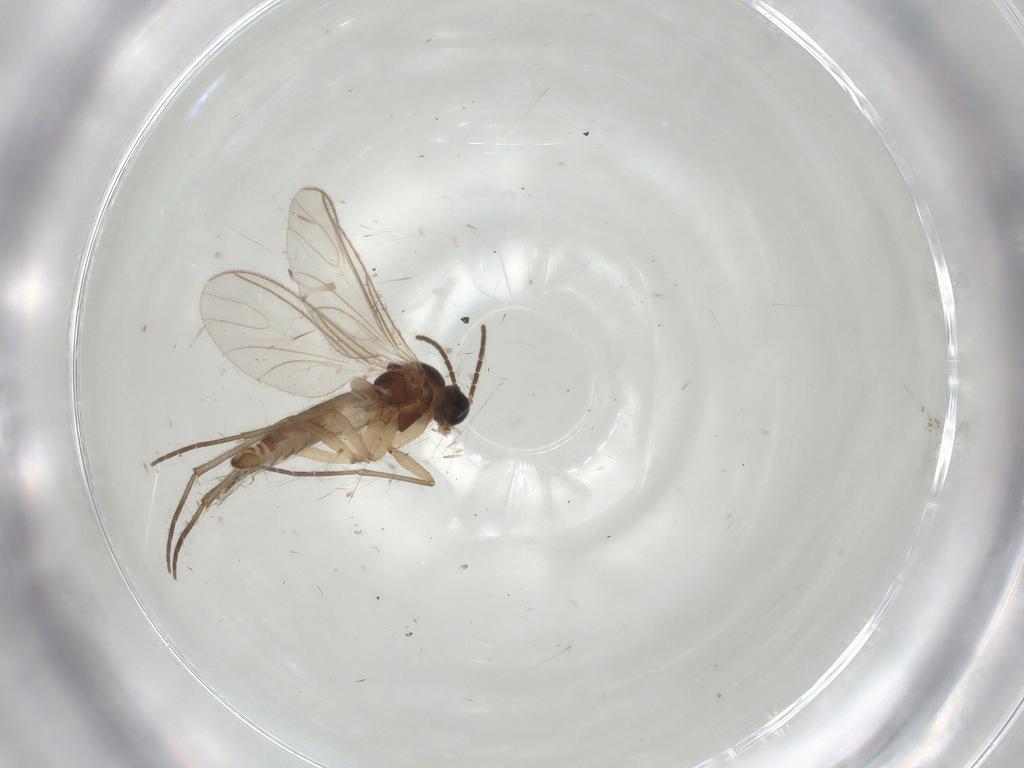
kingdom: Animalia
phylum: Arthropoda
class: Insecta
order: Diptera
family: Sciaridae
